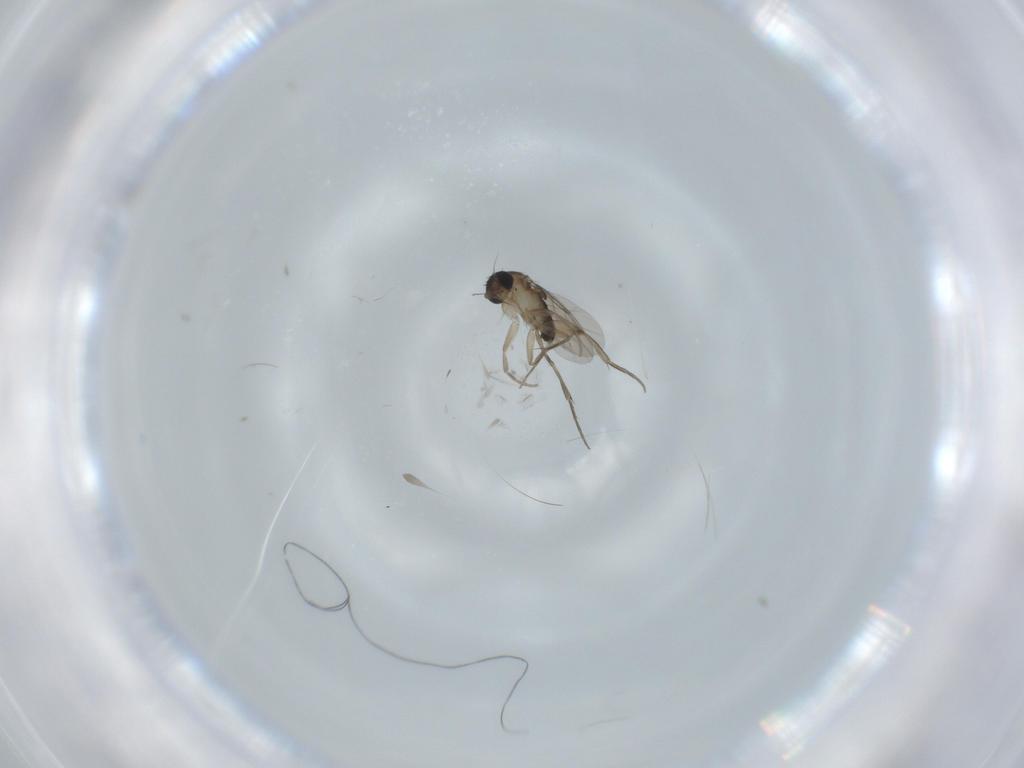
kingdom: Animalia
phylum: Arthropoda
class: Insecta
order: Diptera
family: Phoridae
